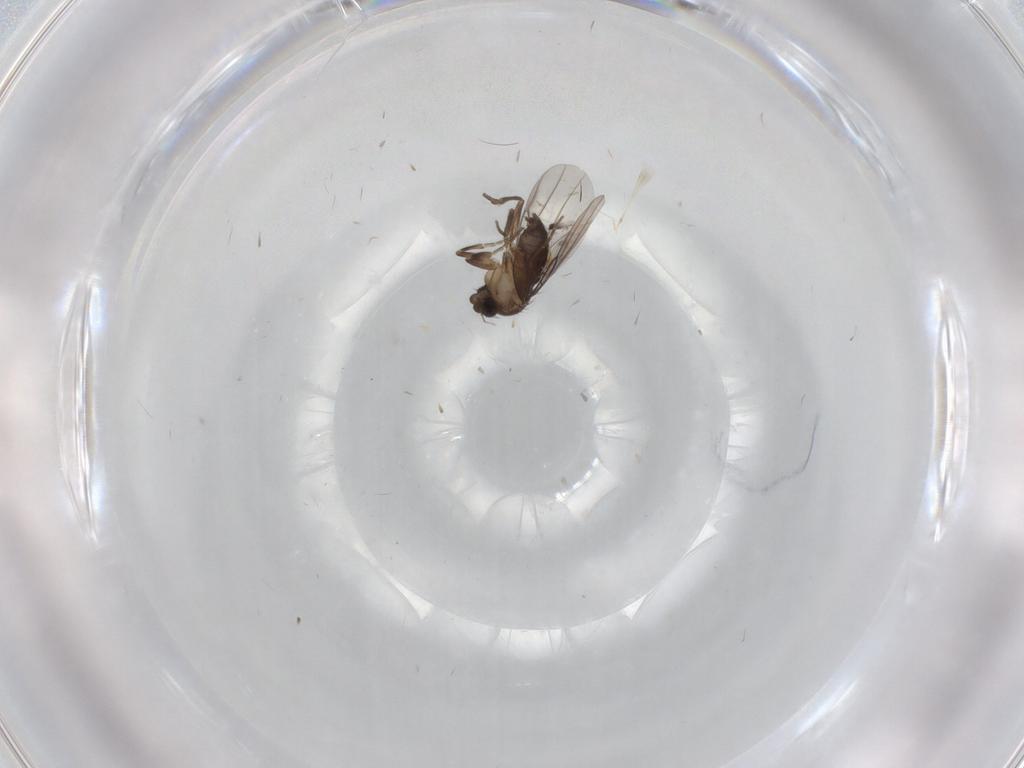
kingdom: Animalia
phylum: Arthropoda
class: Insecta
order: Diptera
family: Phoridae
